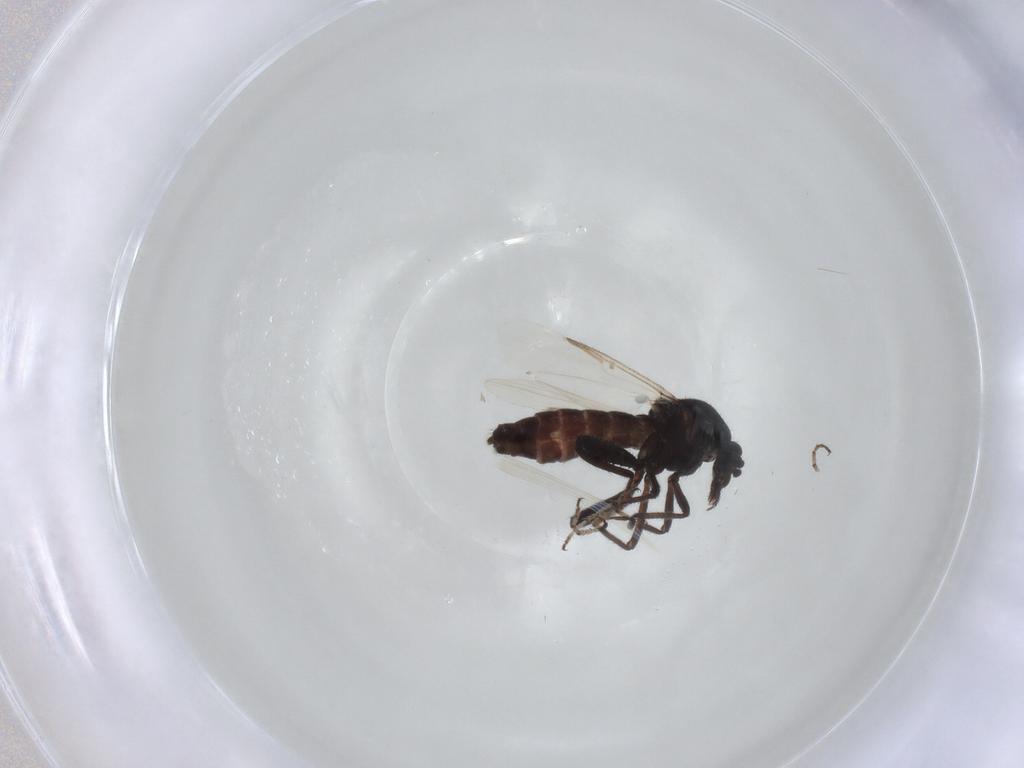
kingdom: Animalia
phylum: Arthropoda
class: Insecta
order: Diptera
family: Ceratopogonidae
